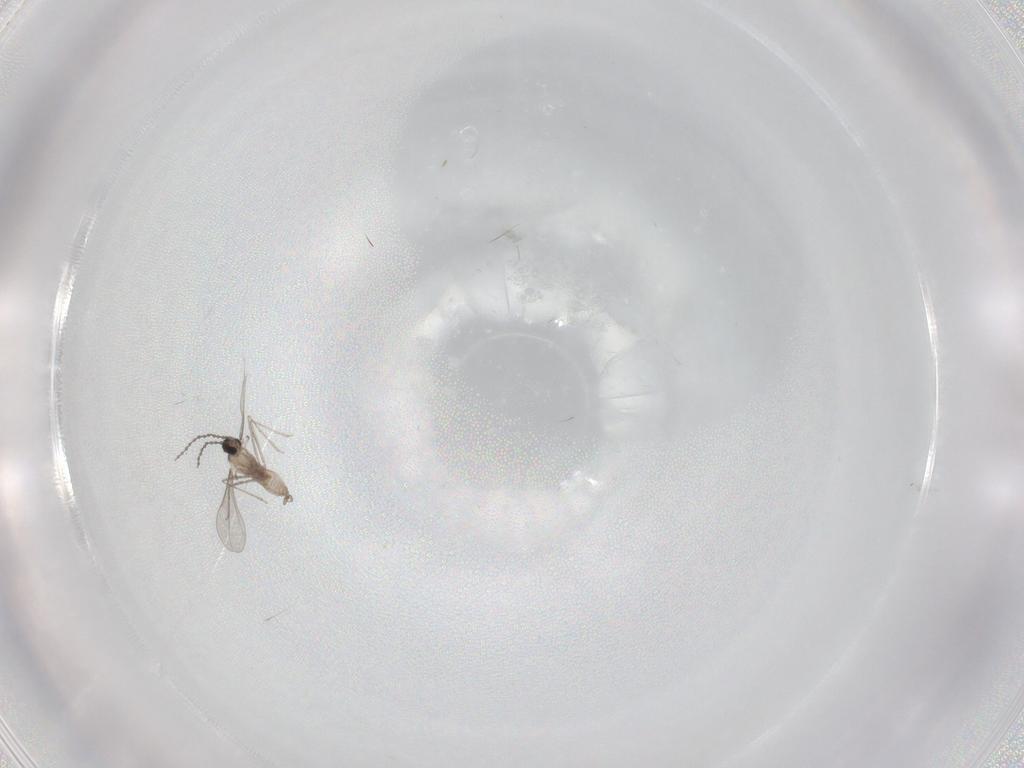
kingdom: Animalia
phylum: Arthropoda
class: Insecta
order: Diptera
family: Cecidomyiidae
